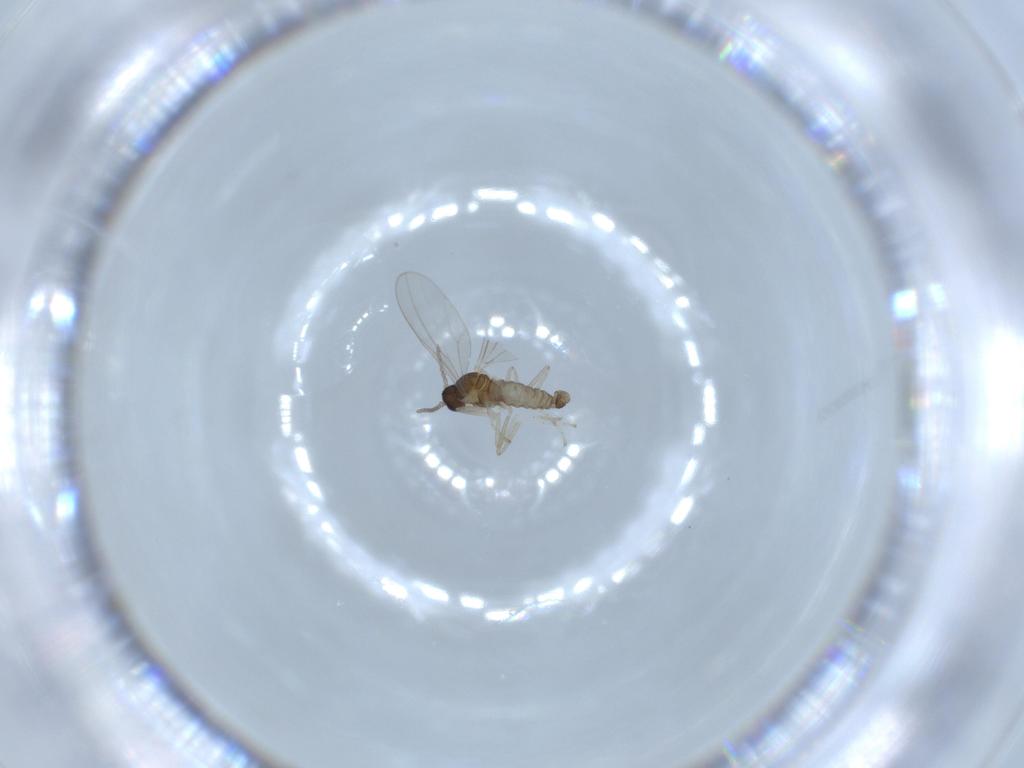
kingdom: Animalia
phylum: Arthropoda
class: Insecta
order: Diptera
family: Cecidomyiidae
